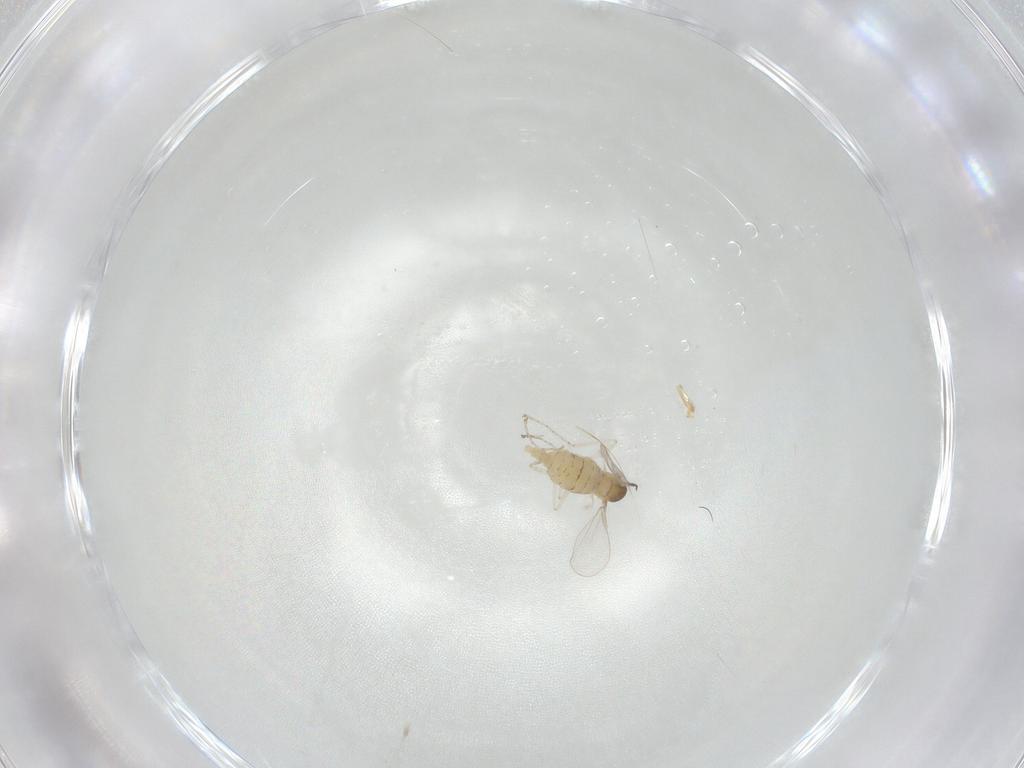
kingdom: Animalia
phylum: Arthropoda
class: Insecta
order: Diptera
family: Cecidomyiidae
